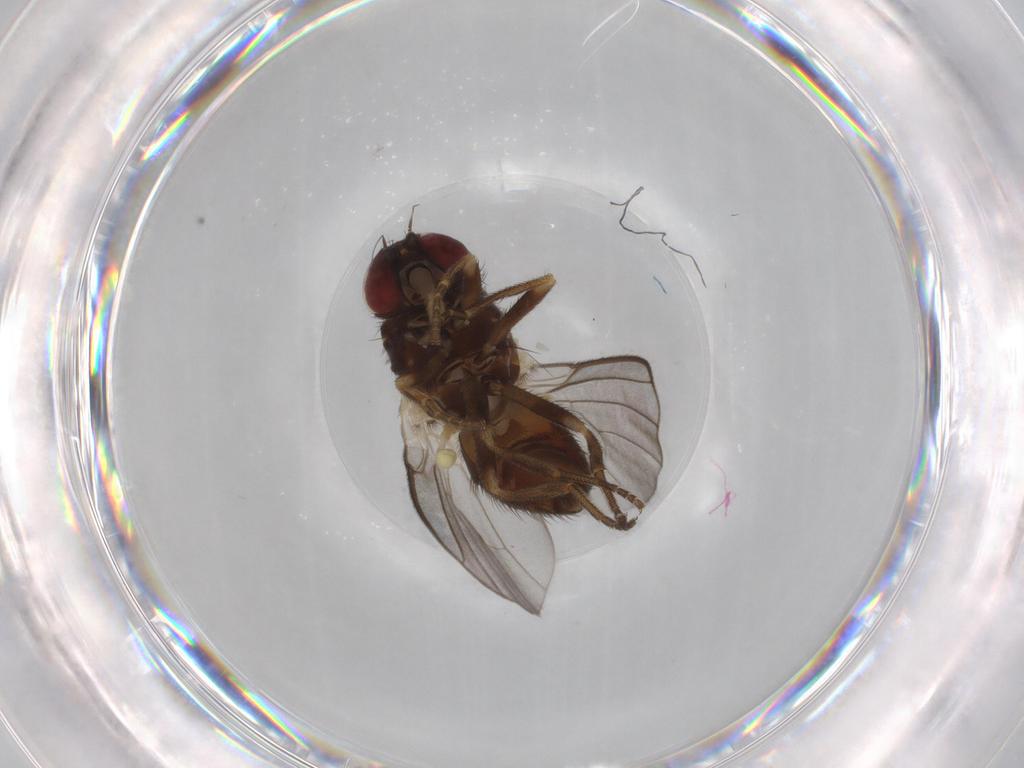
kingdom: Animalia
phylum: Arthropoda
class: Insecta
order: Diptera
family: Agromyzidae
